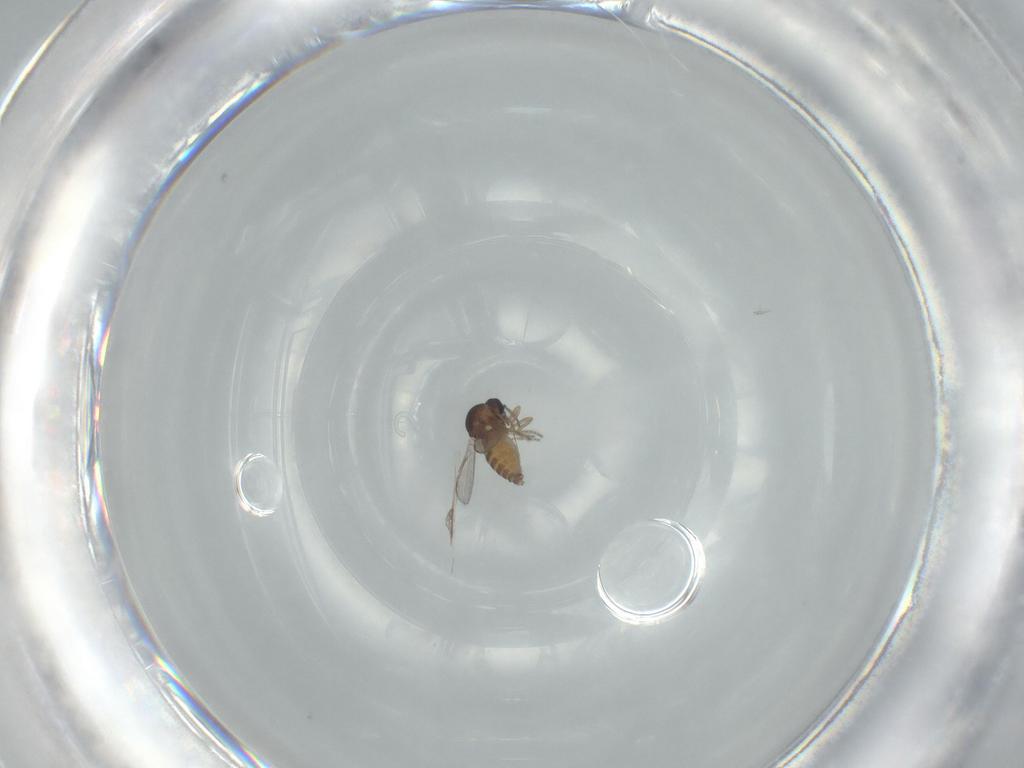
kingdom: Animalia
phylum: Arthropoda
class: Insecta
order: Diptera
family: Ceratopogonidae
